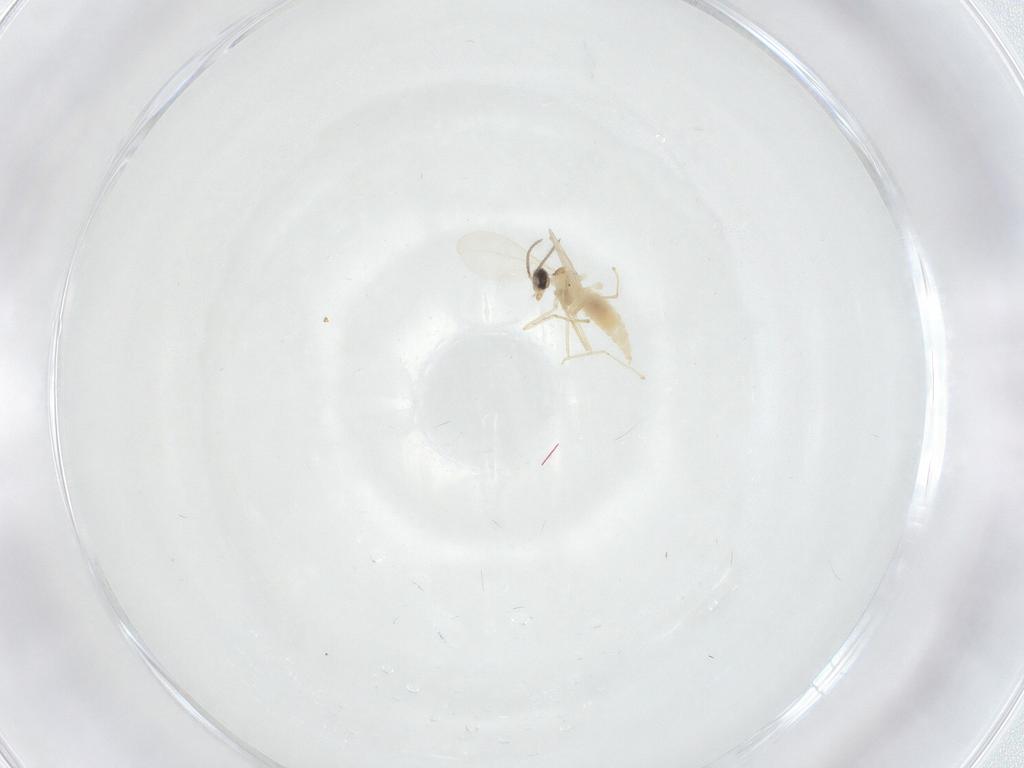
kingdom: Animalia
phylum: Arthropoda
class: Insecta
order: Diptera
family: Cecidomyiidae
